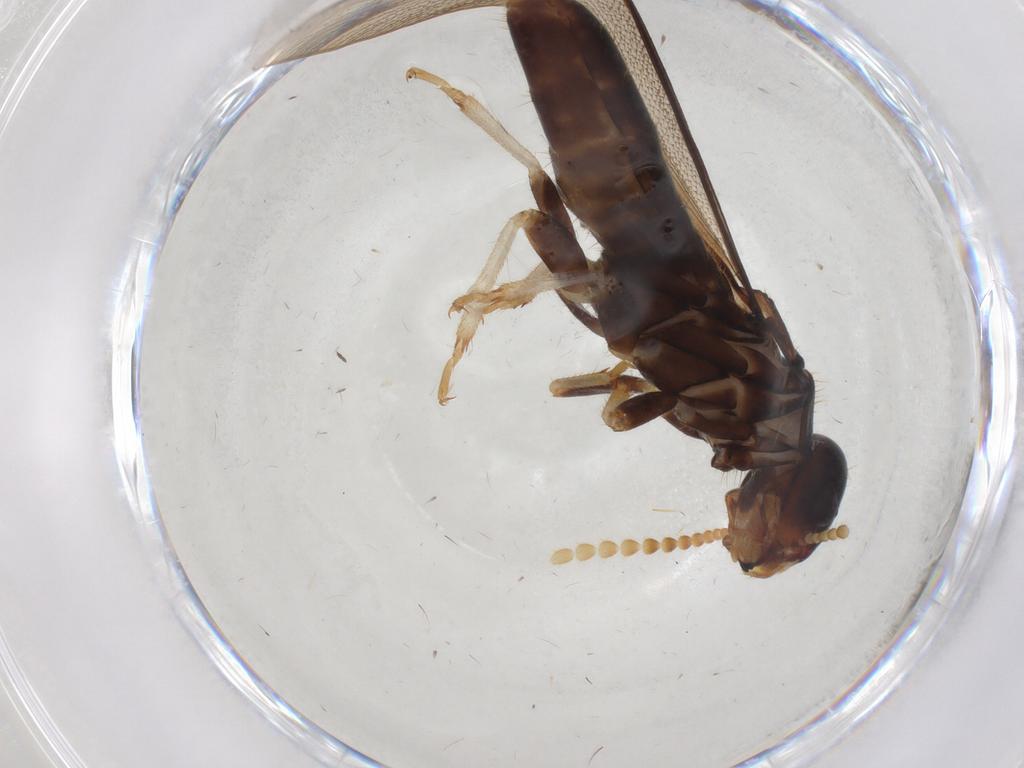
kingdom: Animalia
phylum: Arthropoda
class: Insecta
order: Blattodea
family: Kalotermitidae
